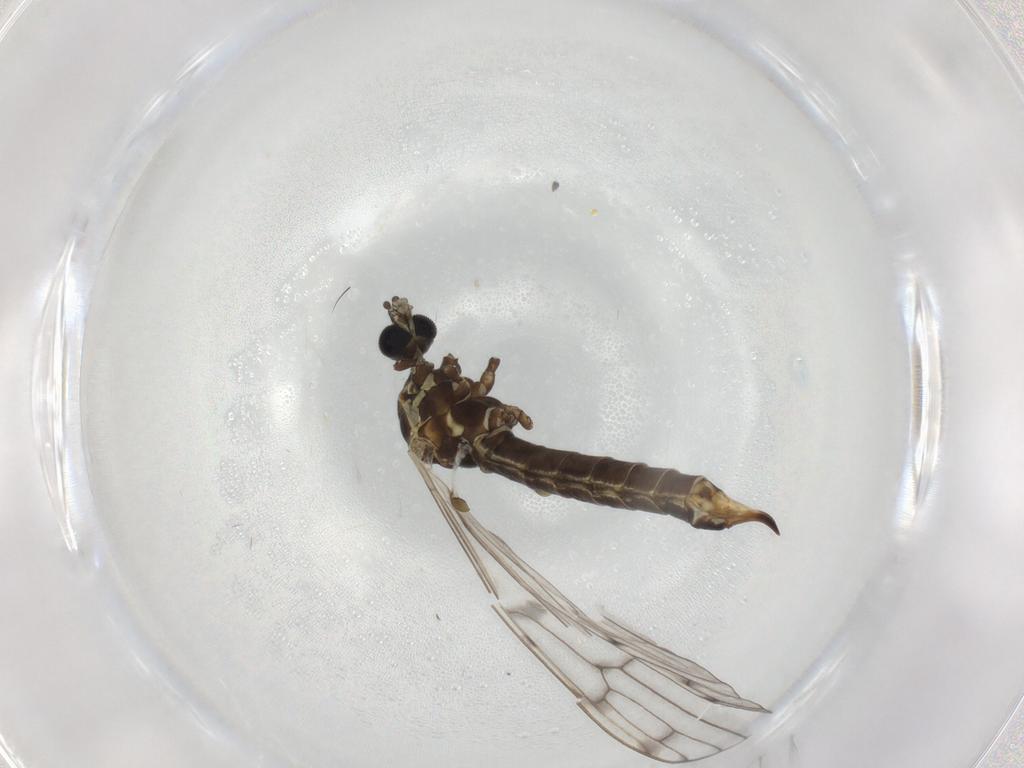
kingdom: Animalia
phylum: Arthropoda
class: Insecta
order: Diptera
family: Limoniidae
